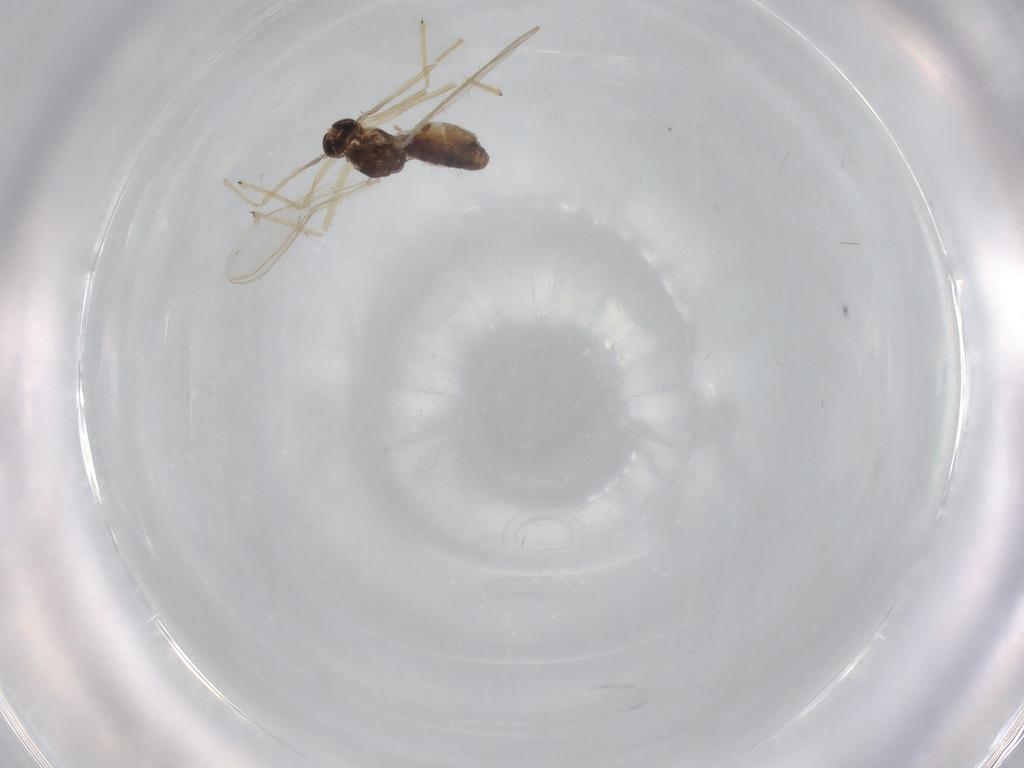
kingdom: Animalia
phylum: Arthropoda
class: Insecta
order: Diptera
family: Chironomidae
